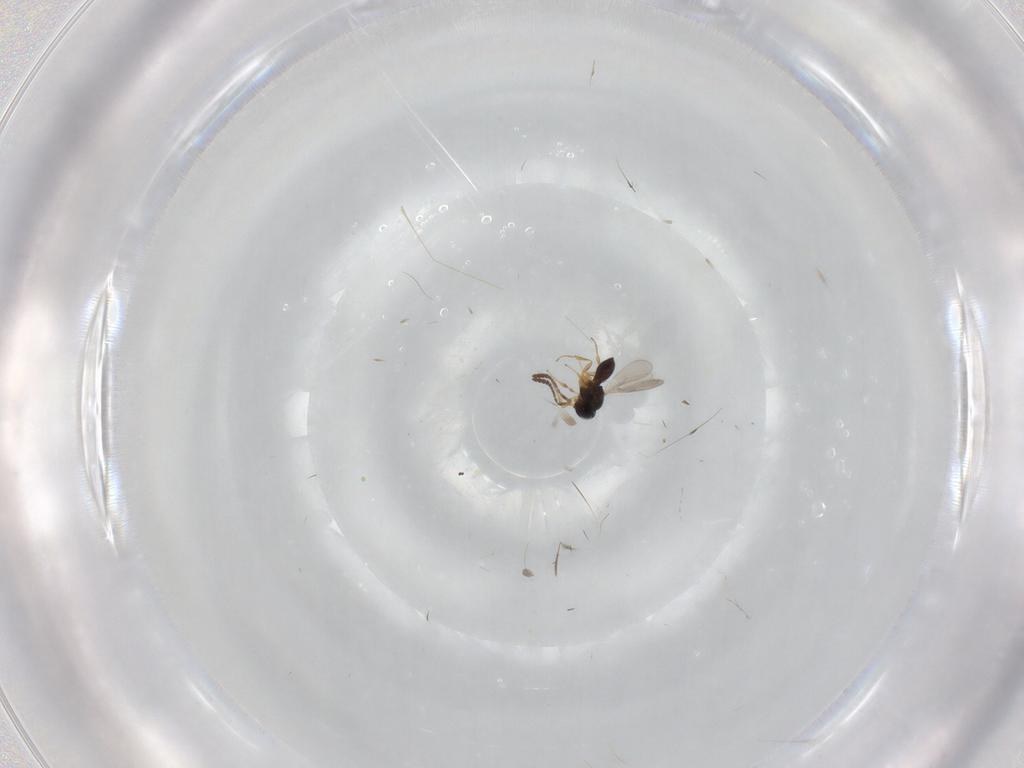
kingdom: Animalia
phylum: Arthropoda
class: Insecta
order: Hymenoptera
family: Scelionidae
